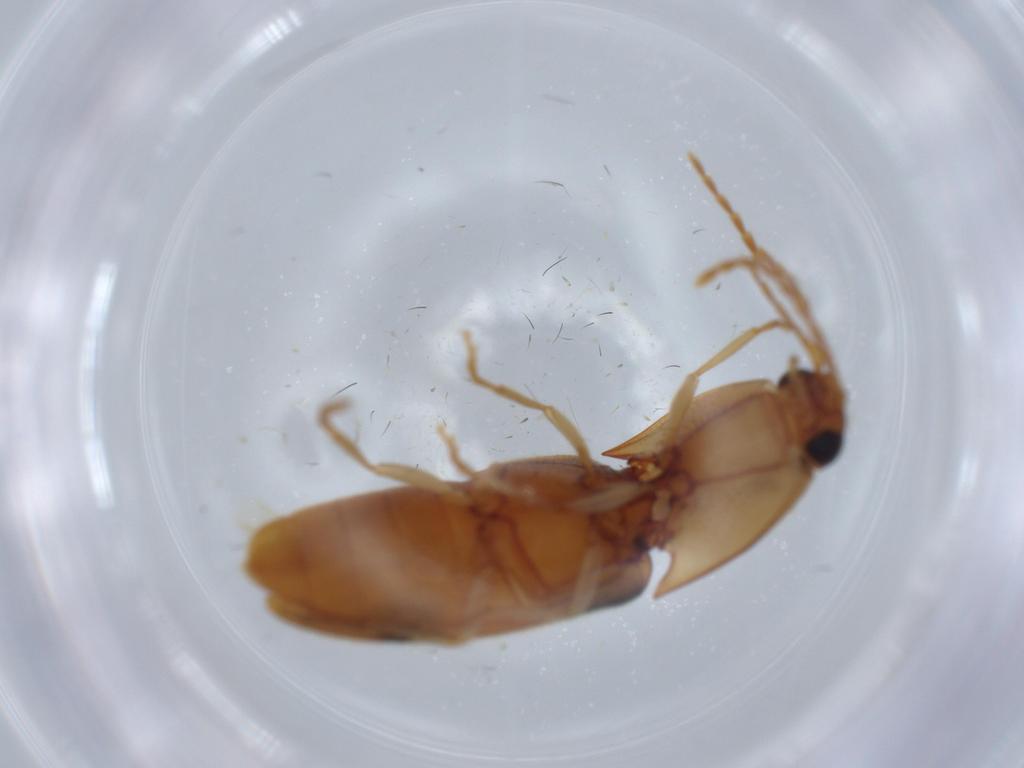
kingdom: Animalia
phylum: Arthropoda
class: Insecta
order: Coleoptera
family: Elateridae
